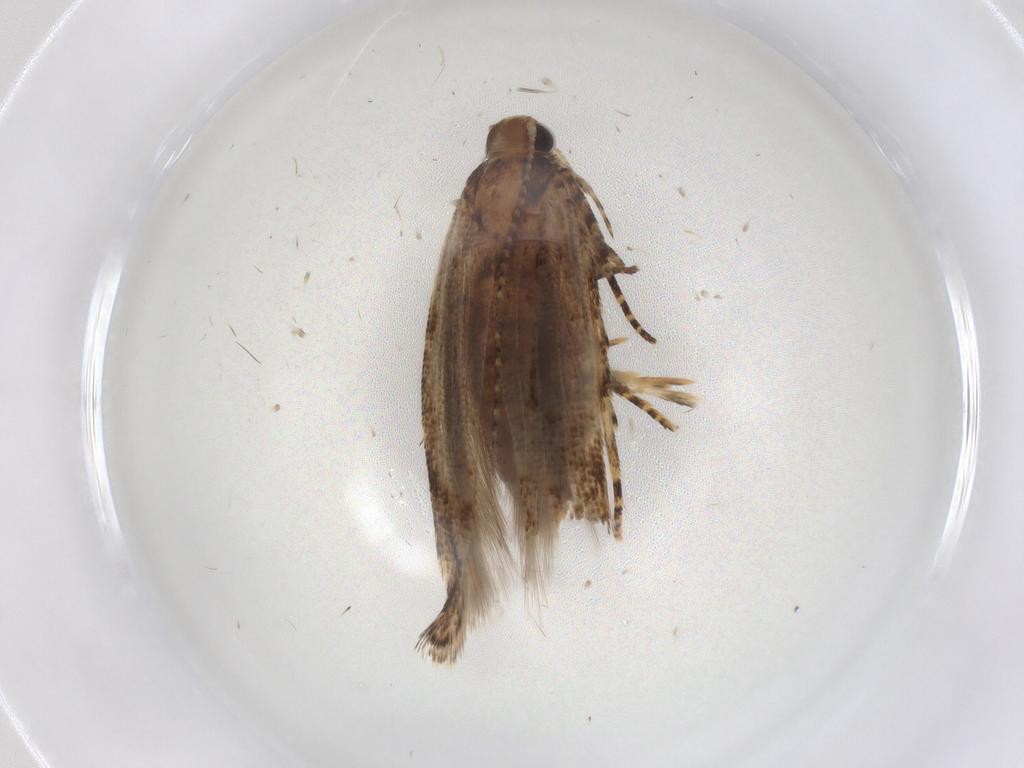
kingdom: Animalia
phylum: Arthropoda
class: Insecta
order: Lepidoptera
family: Gelechiidae
